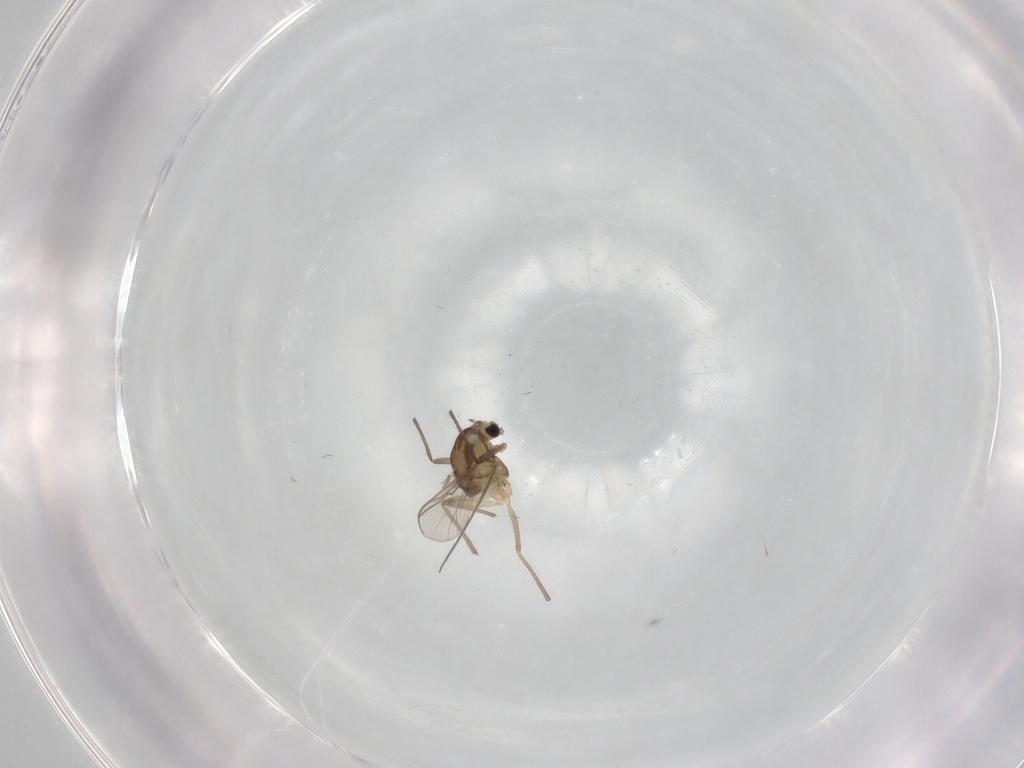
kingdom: Animalia
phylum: Arthropoda
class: Insecta
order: Diptera
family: Chironomidae
